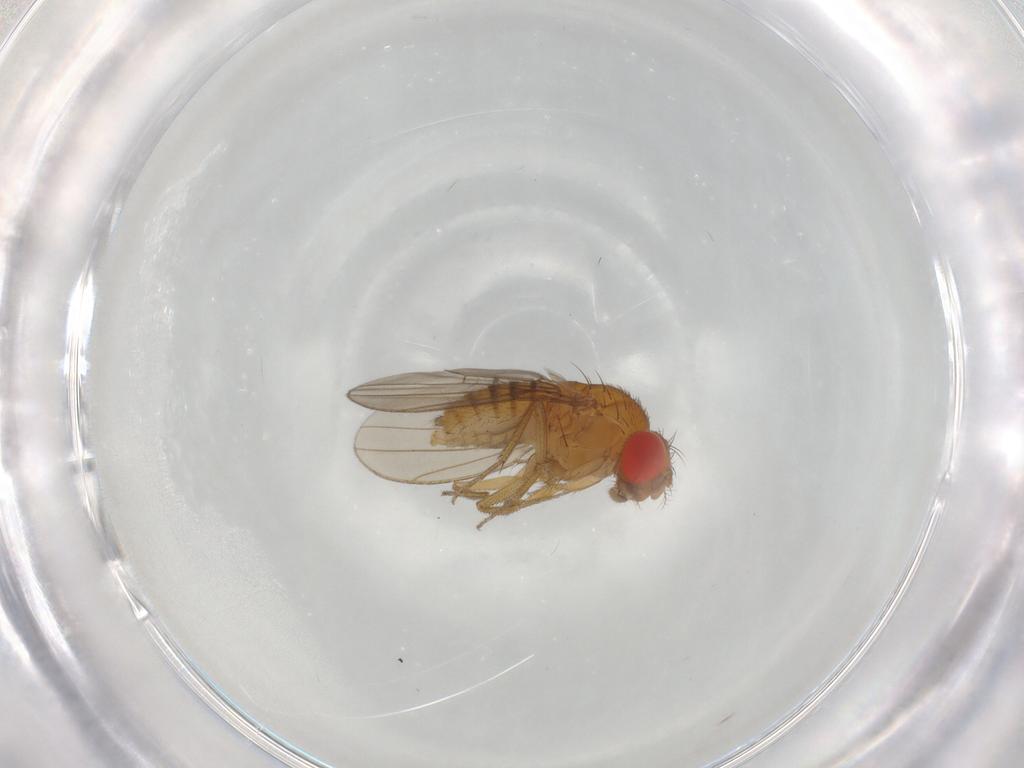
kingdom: Animalia
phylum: Arthropoda
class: Insecta
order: Diptera
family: Drosophilidae
